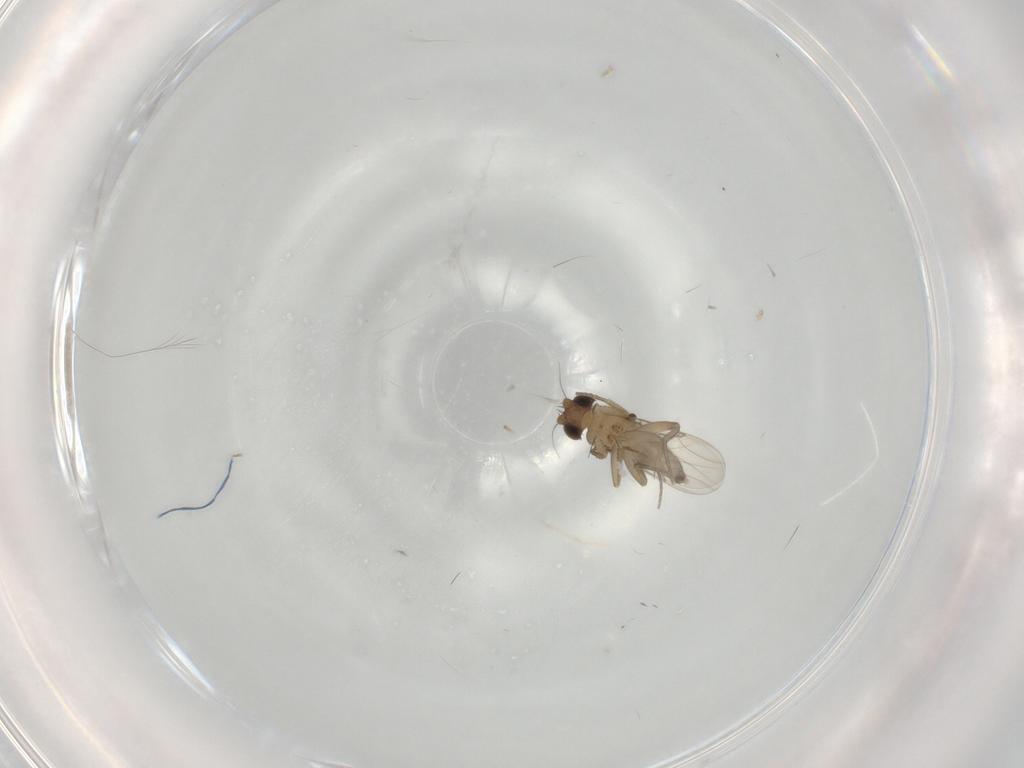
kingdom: Animalia
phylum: Arthropoda
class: Insecta
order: Diptera
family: Phoridae
